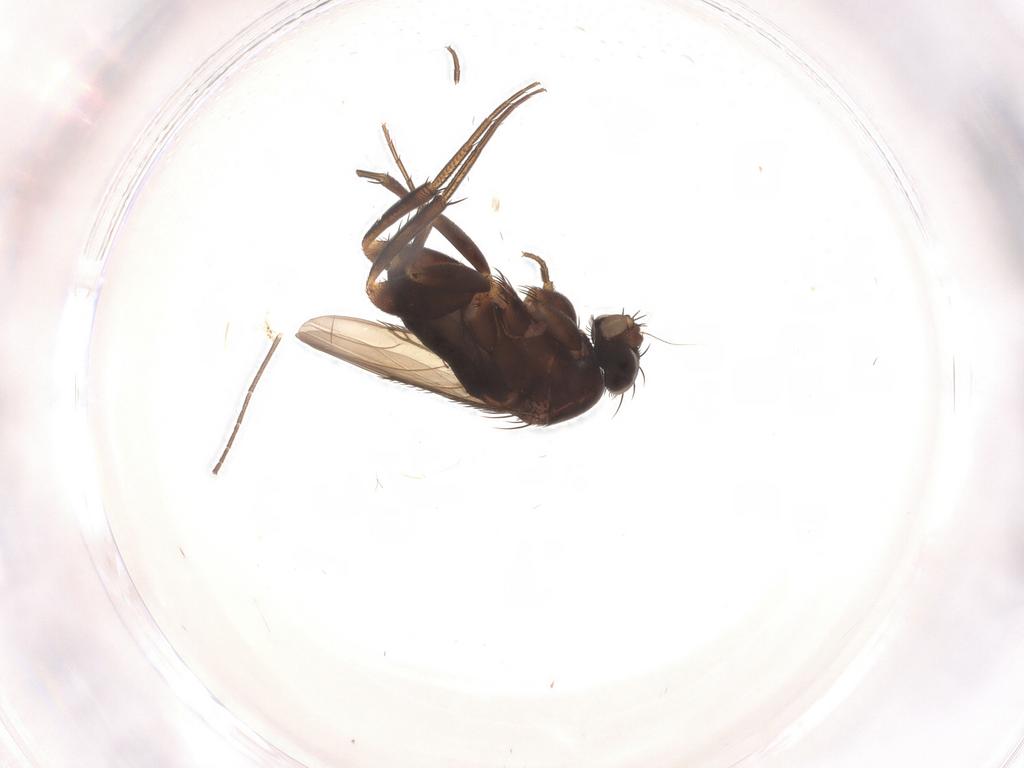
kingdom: Animalia
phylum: Arthropoda
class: Insecta
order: Diptera
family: Phoridae
